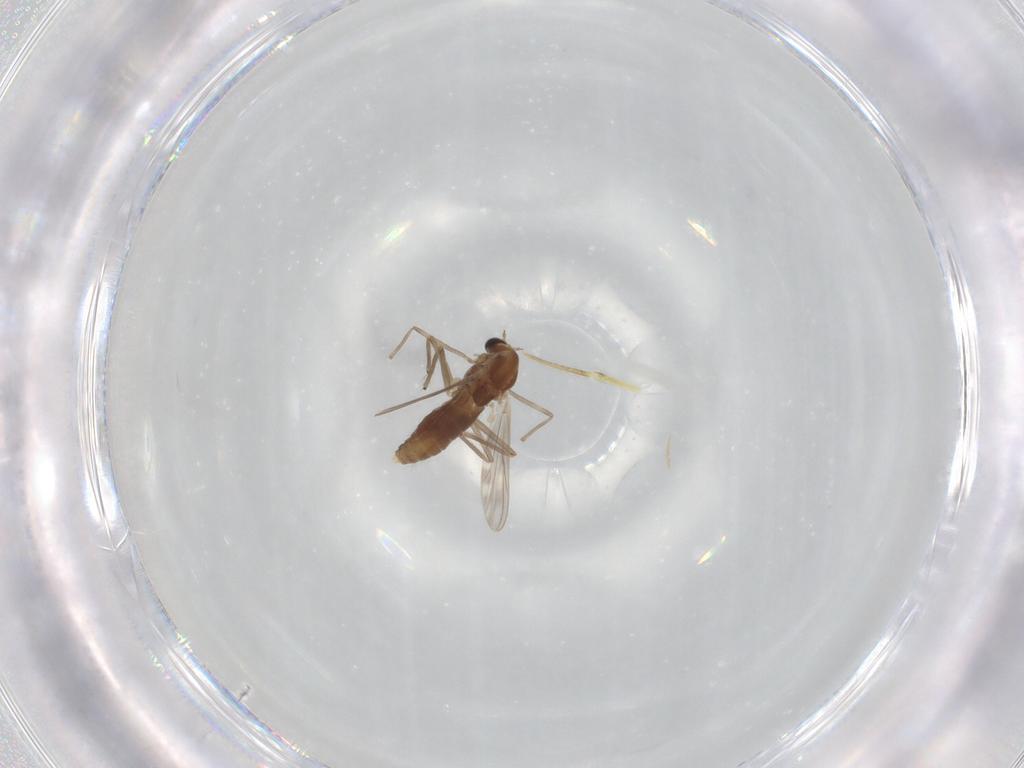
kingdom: Animalia
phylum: Arthropoda
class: Insecta
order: Diptera
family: Chironomidae
